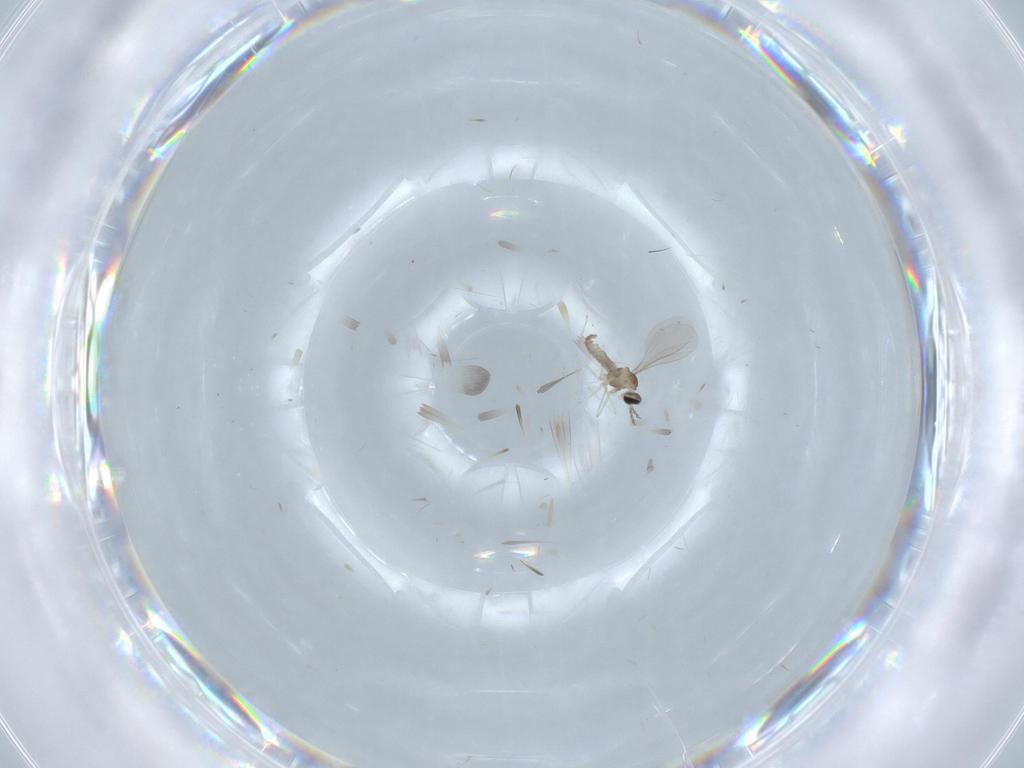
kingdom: Animalia
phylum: Arthropoda
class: Insecta
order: Diptera
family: Cecidomyiidae
